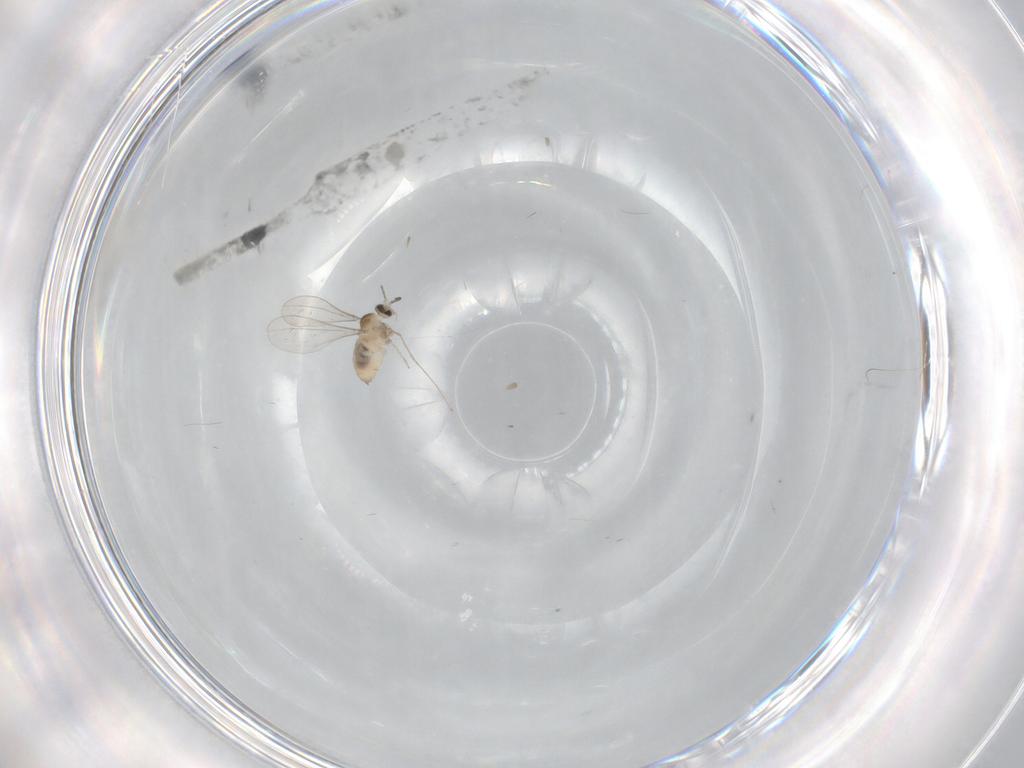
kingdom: Animalia
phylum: Arthropoda
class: Insecta
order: Diptera
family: Cecidomyiidae
